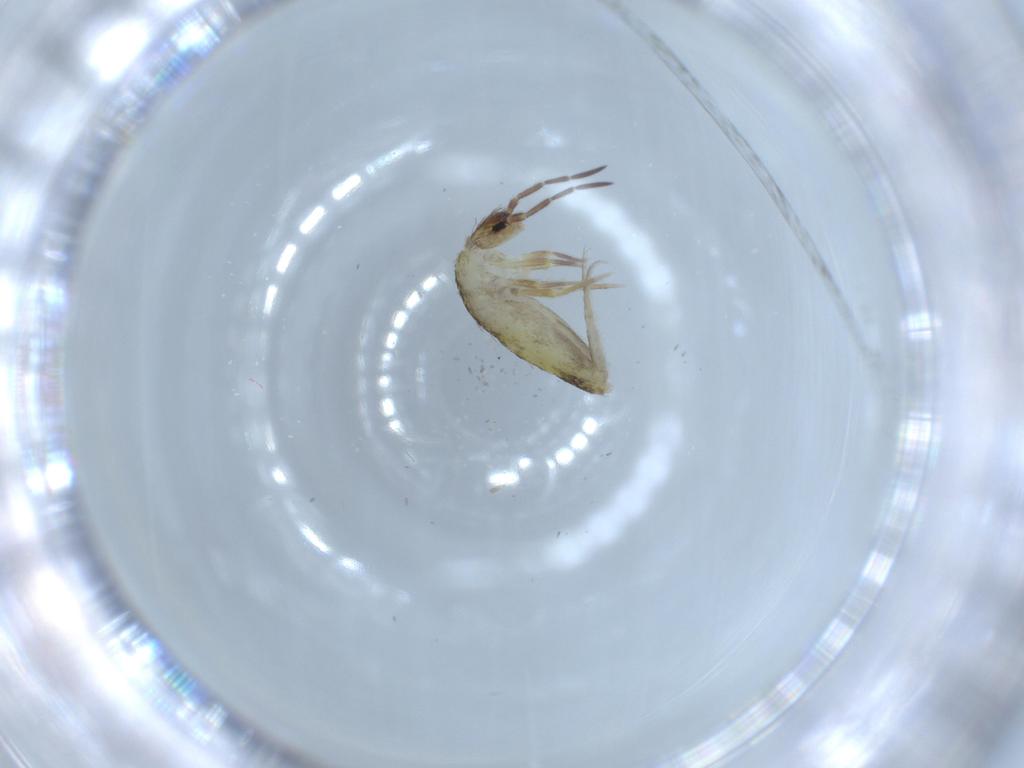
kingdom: Animalia
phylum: Arthropoda
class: Collembola
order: Entomobryomorpha
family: Entomobryidae
